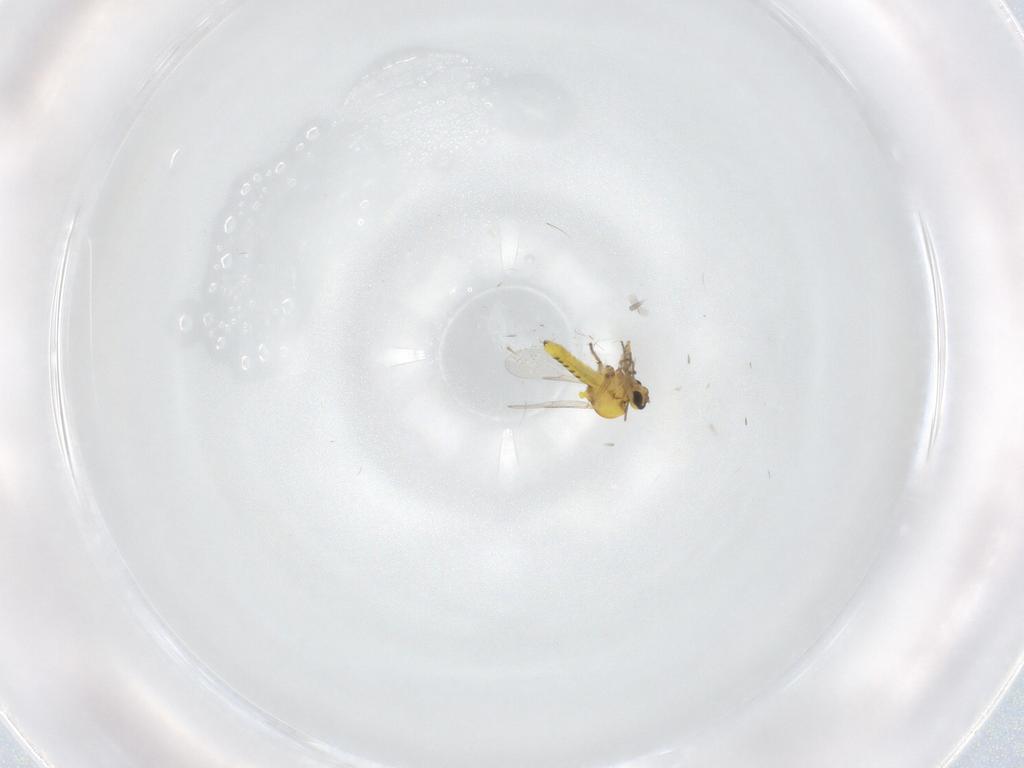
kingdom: Animalia
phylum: Arthropoda
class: Insecta
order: Diptera
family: Ceratopogonidae
